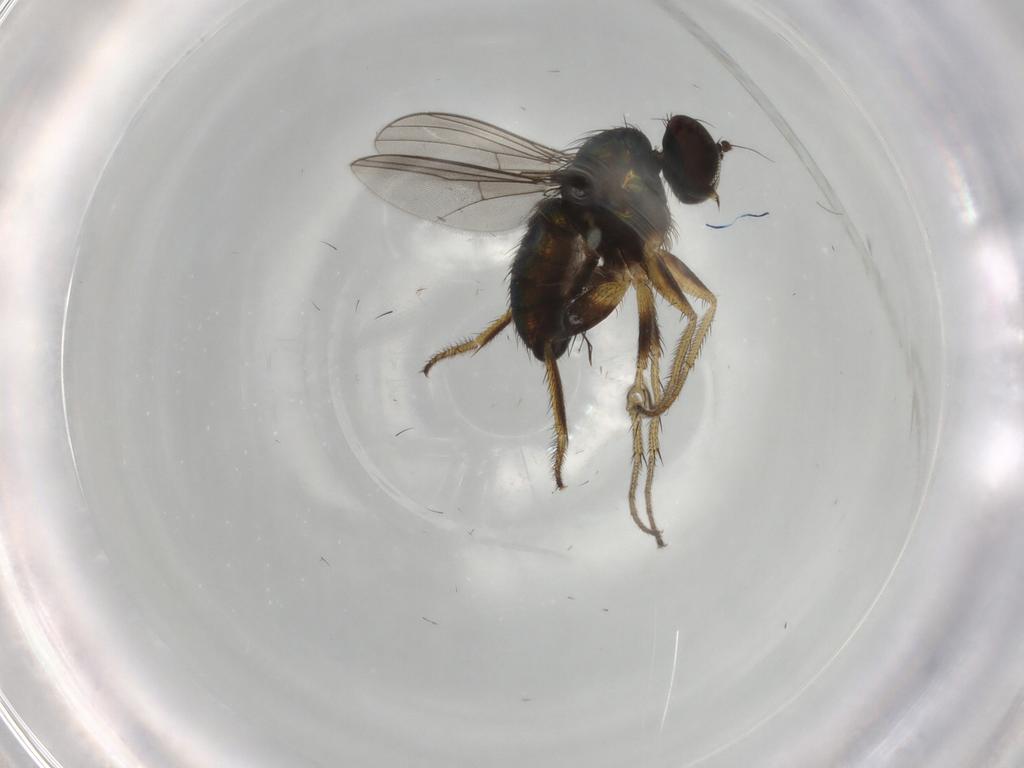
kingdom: Animalia
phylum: Arthropoda
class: Insecta
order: Diptera
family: Dolichopodidae
